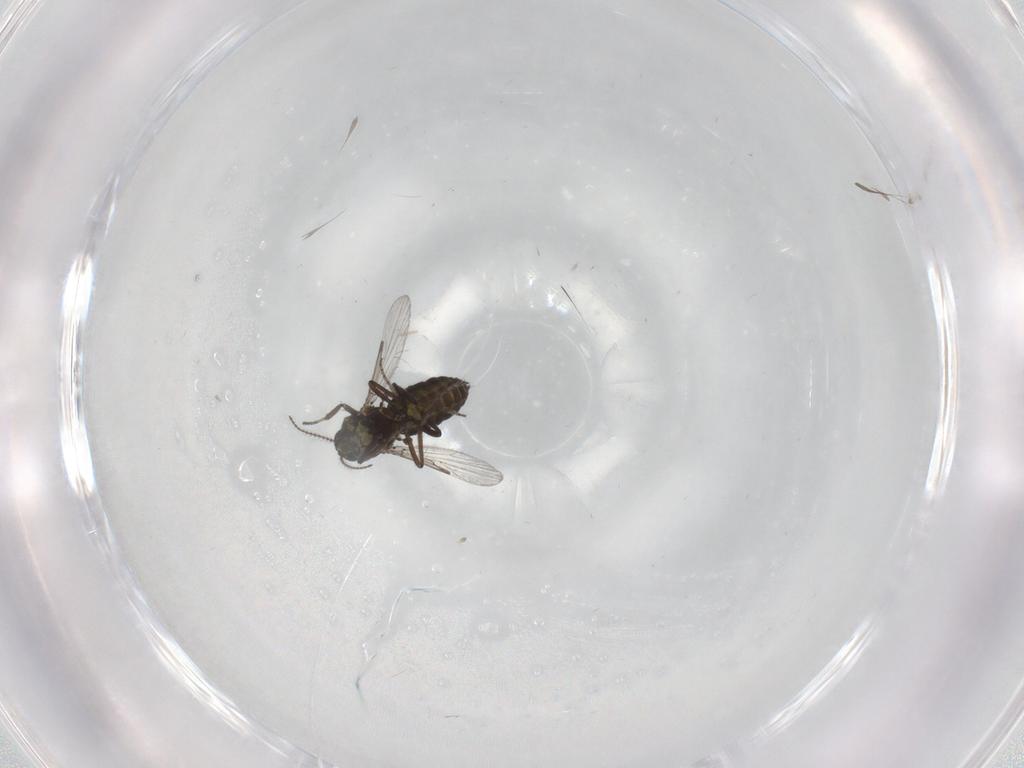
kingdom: Animalia
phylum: Arthropoda
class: Insecta
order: Diptera
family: Ceratopogonidae
